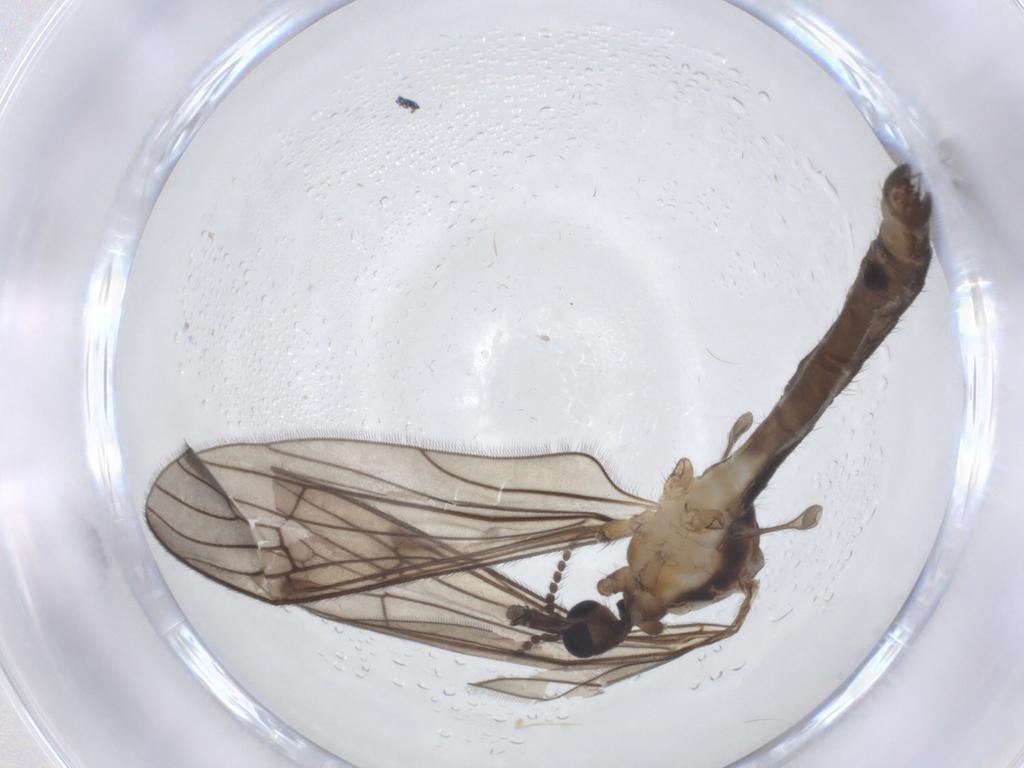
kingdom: Animalia
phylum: Arthropoda
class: Insecta
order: Diptera
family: Limoniidae
